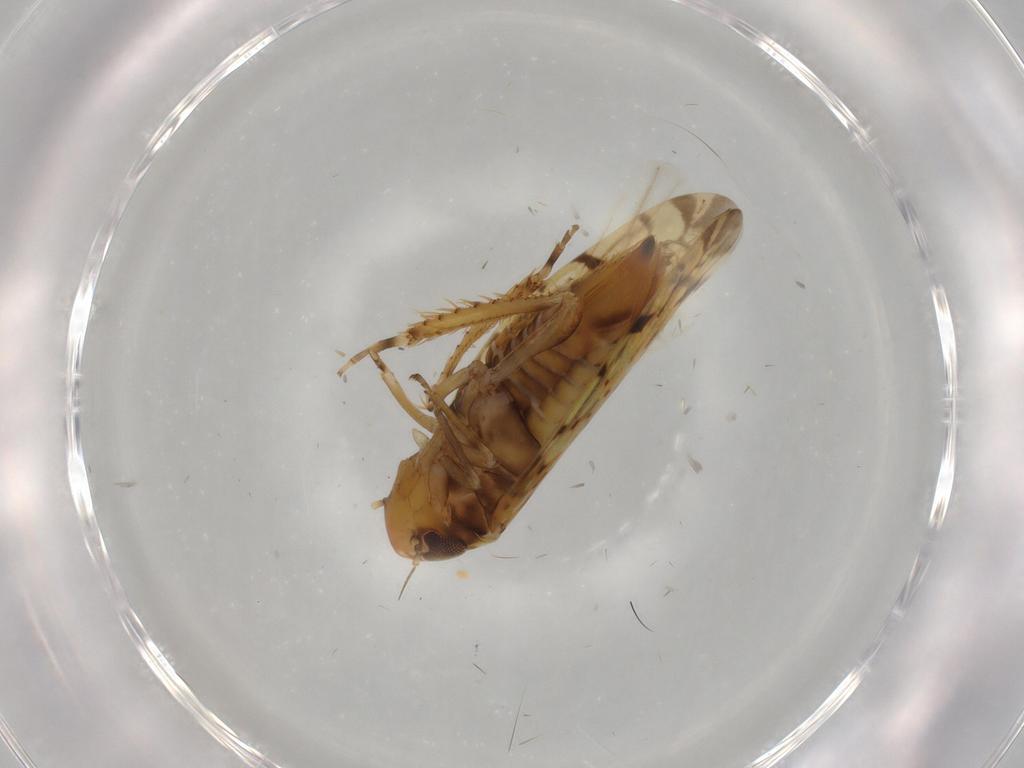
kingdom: Animalia
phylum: Arthropoda
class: Insecta
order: Hemiptera
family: Cicadellidae
